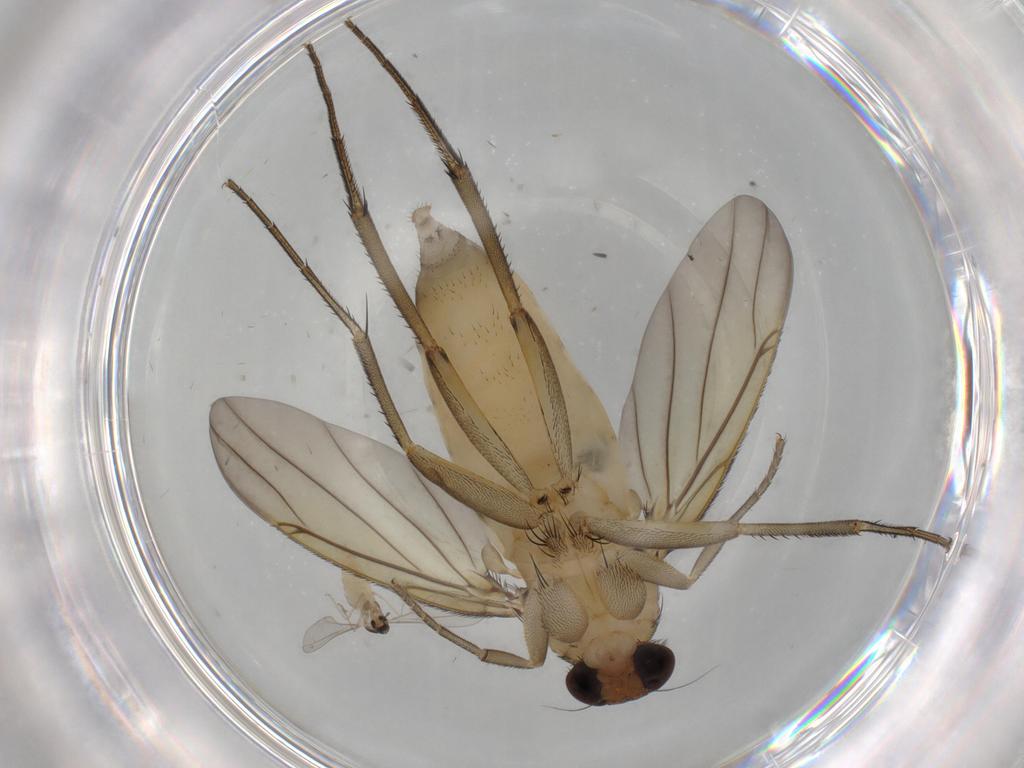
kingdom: Animalia
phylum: Arthropoda
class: Insecta
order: Diptera
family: Phoridae
